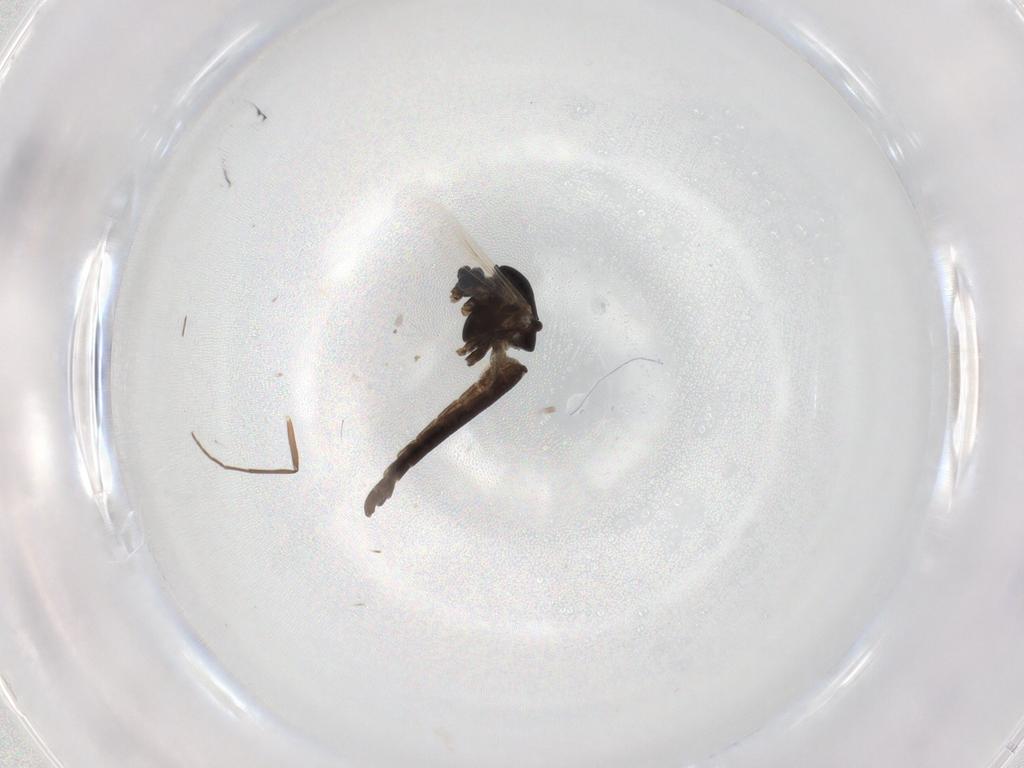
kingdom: Animalia
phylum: Arthropoda
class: Insecta
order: Diptera
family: Chironomidae
